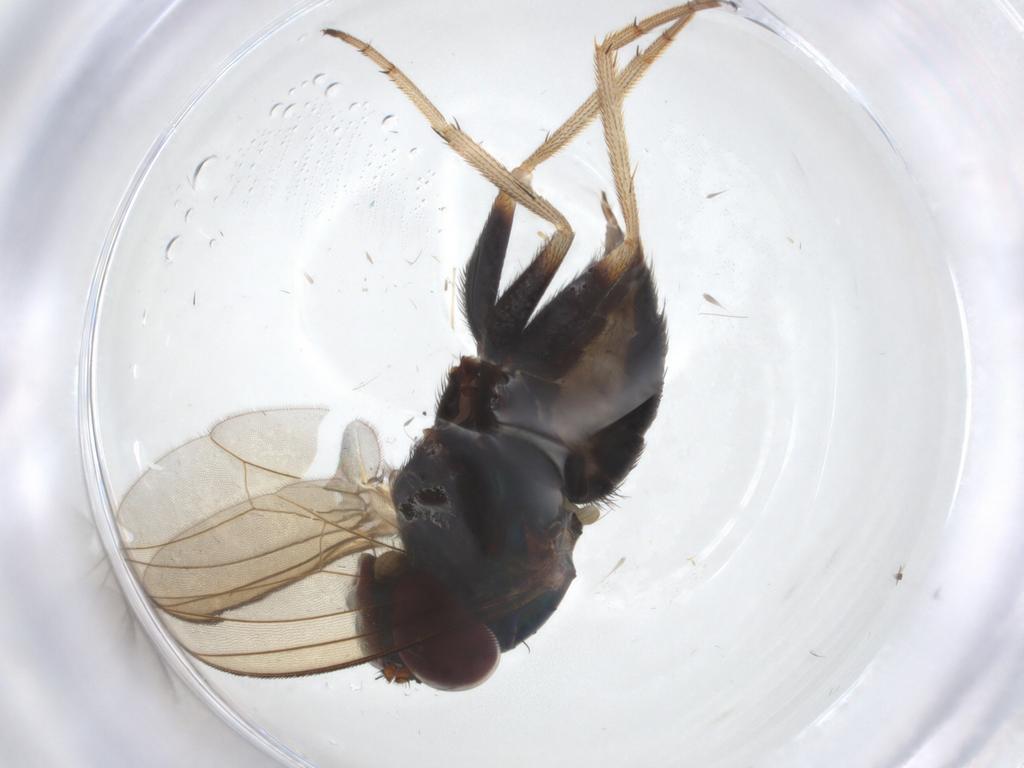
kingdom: Animalia
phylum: Arthropoda
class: Insecta
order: Diptera
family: Dolichopodidae
